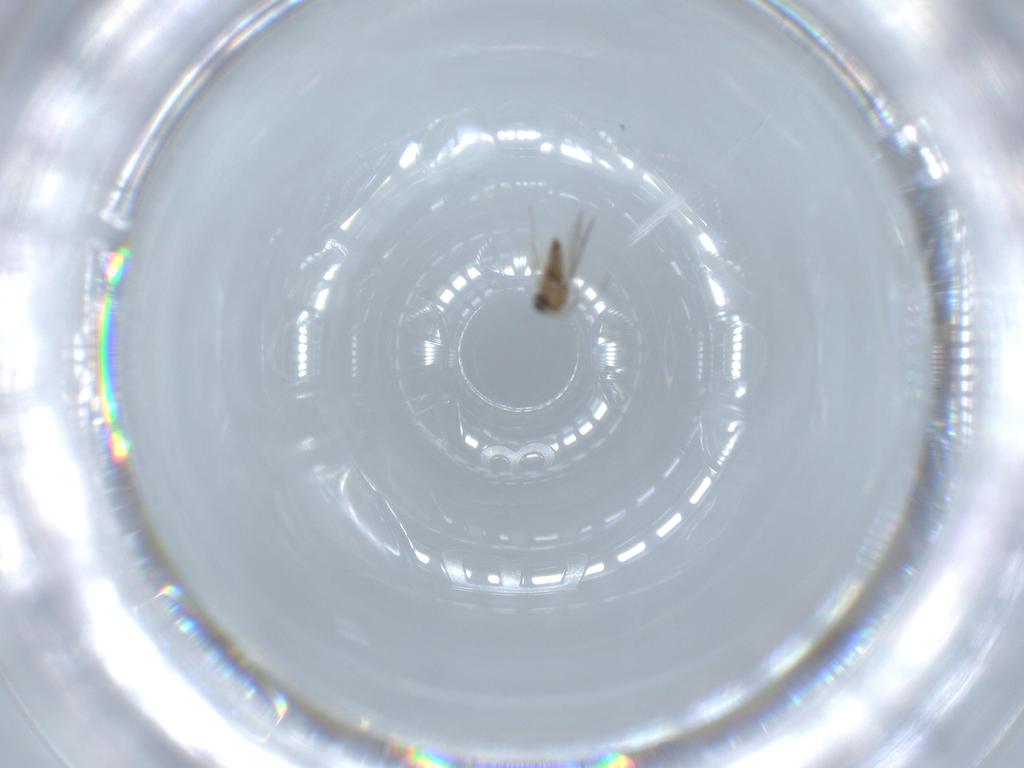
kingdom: Animalia
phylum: Arthropoda
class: Insecta
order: Diptera
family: Cecidomyiidae
